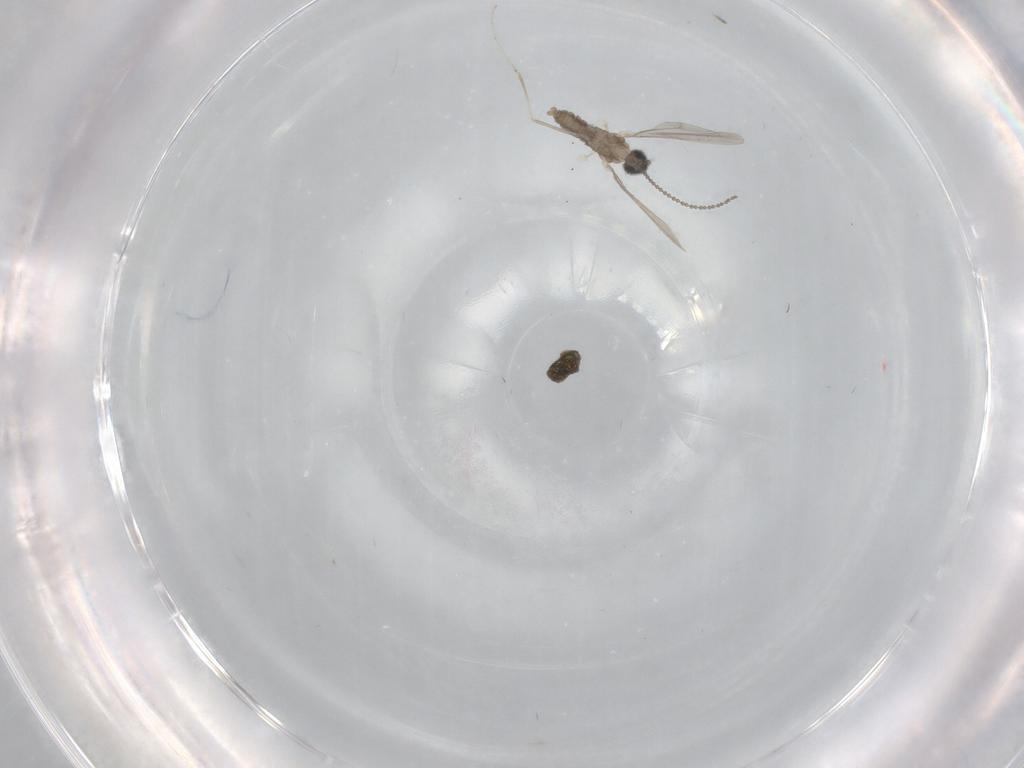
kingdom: Animalia
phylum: Arthropoda
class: Insecta
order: Diptera
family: Cecidomyiidae
